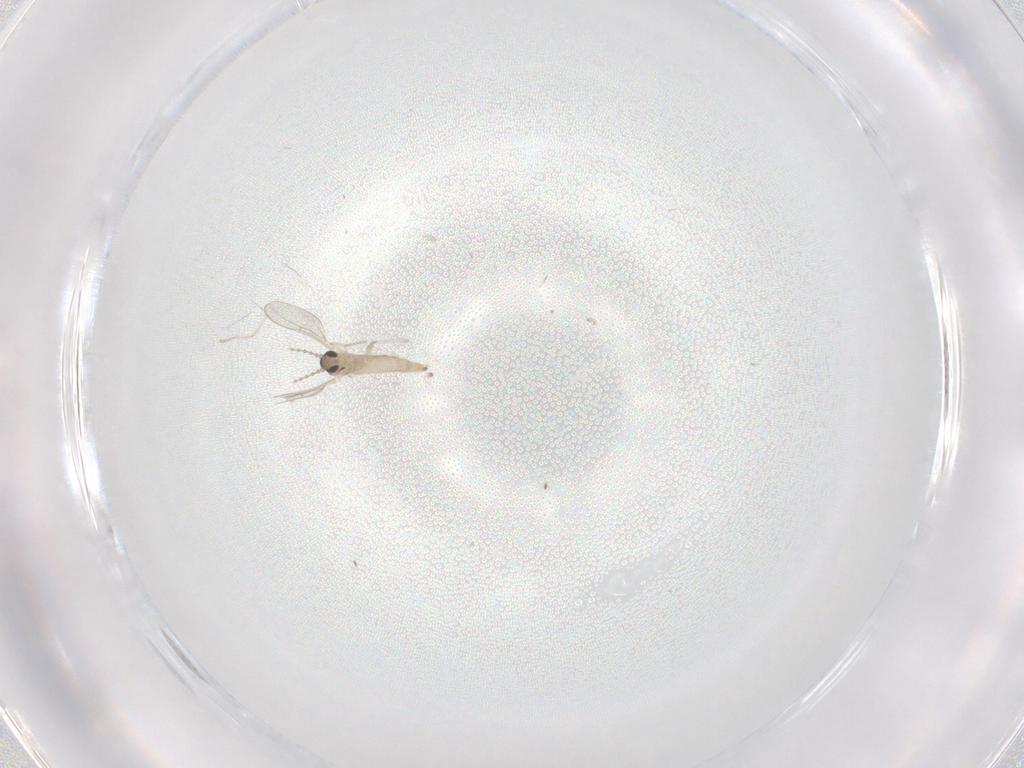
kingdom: Animalia
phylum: Arthropoda
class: Insecta
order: Diptera
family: Cecidomyiidae
